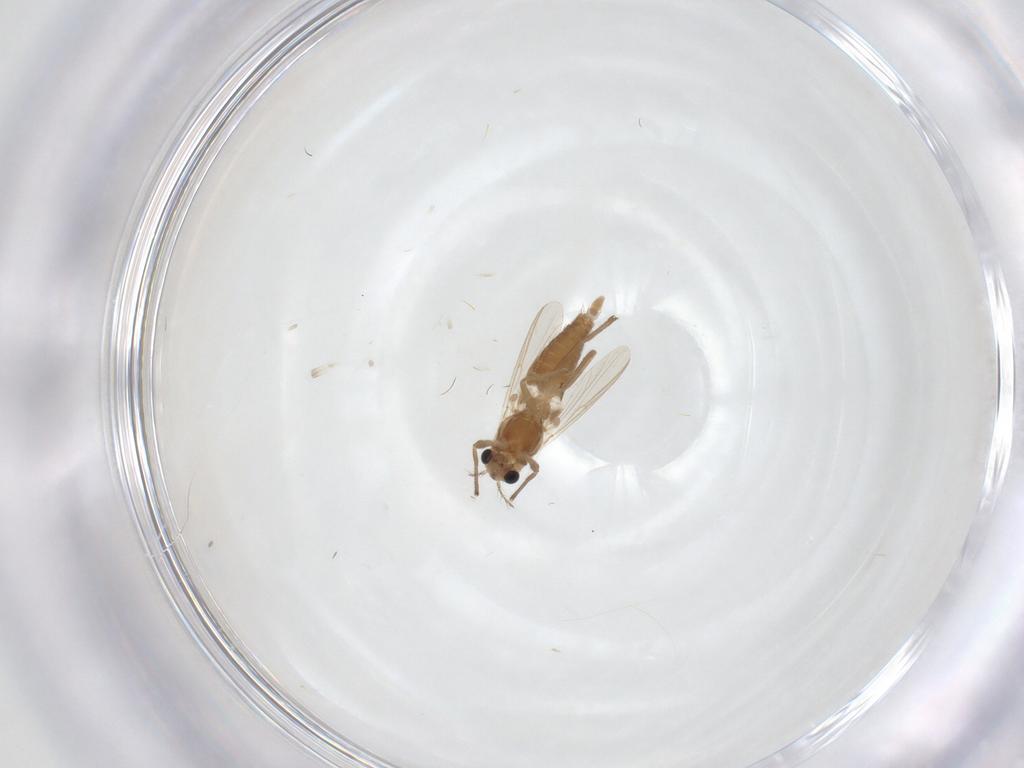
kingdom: Animalia
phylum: Arthropoda
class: Insecta
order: Diptera
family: Chironomidae
